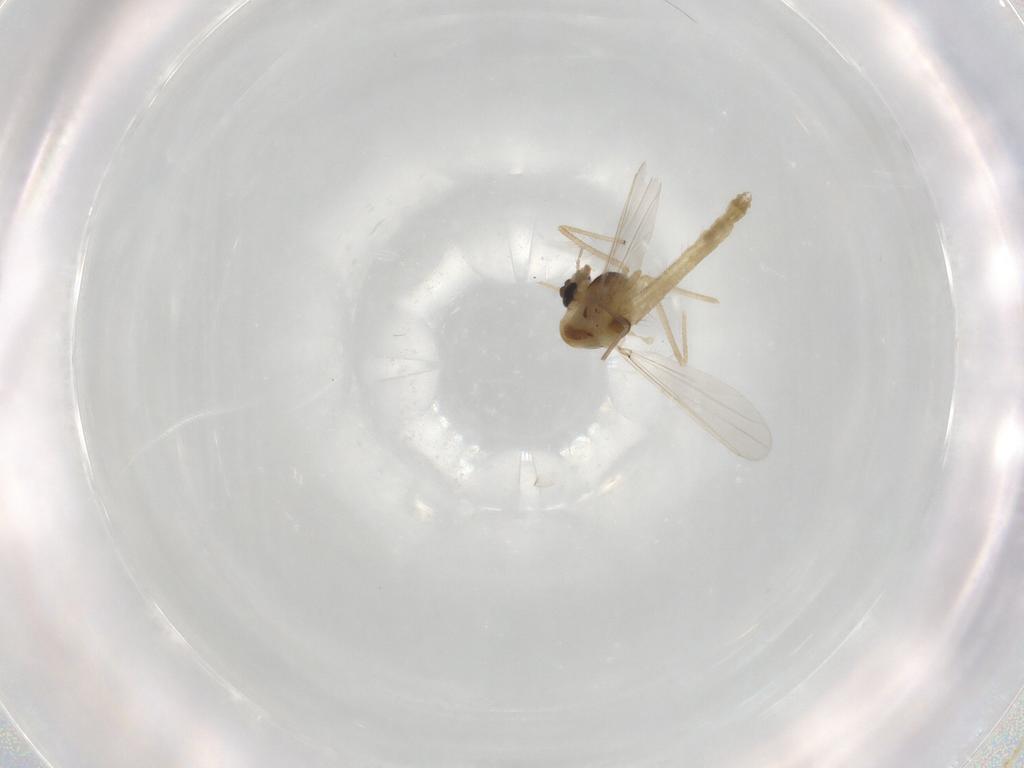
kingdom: Animalia
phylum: Arthropoda
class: Insecta
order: Diptera
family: Chironomidae
